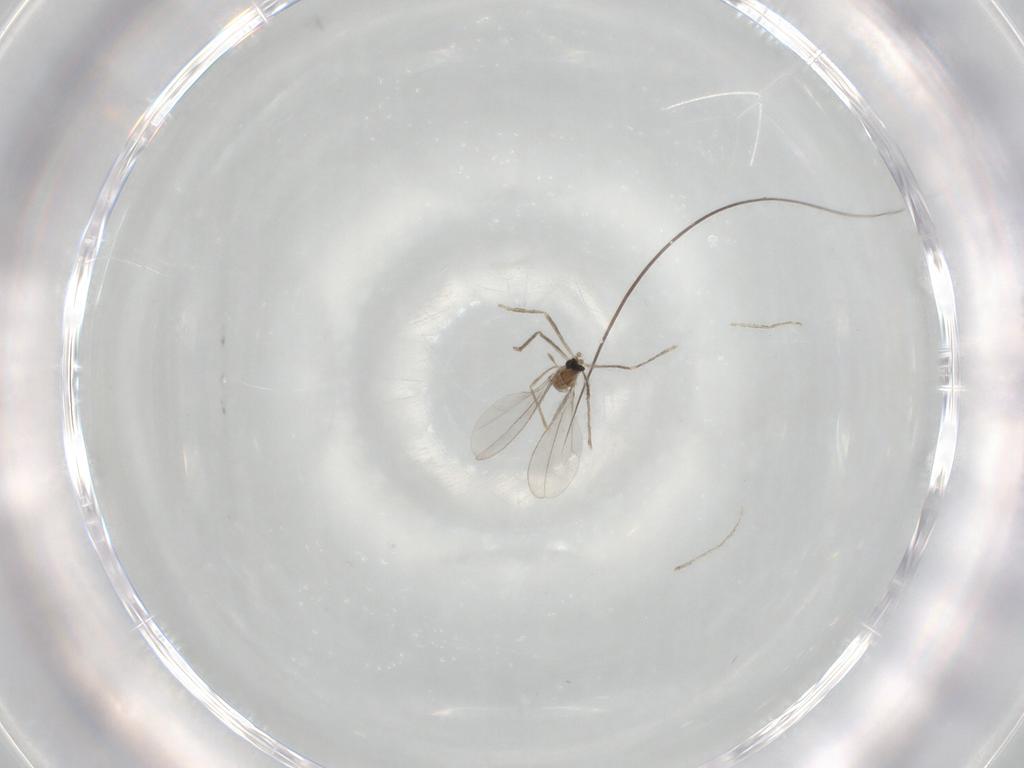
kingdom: Animalia
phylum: Arthropoda
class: Insecta
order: Diptera
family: Cecidomyiidae
